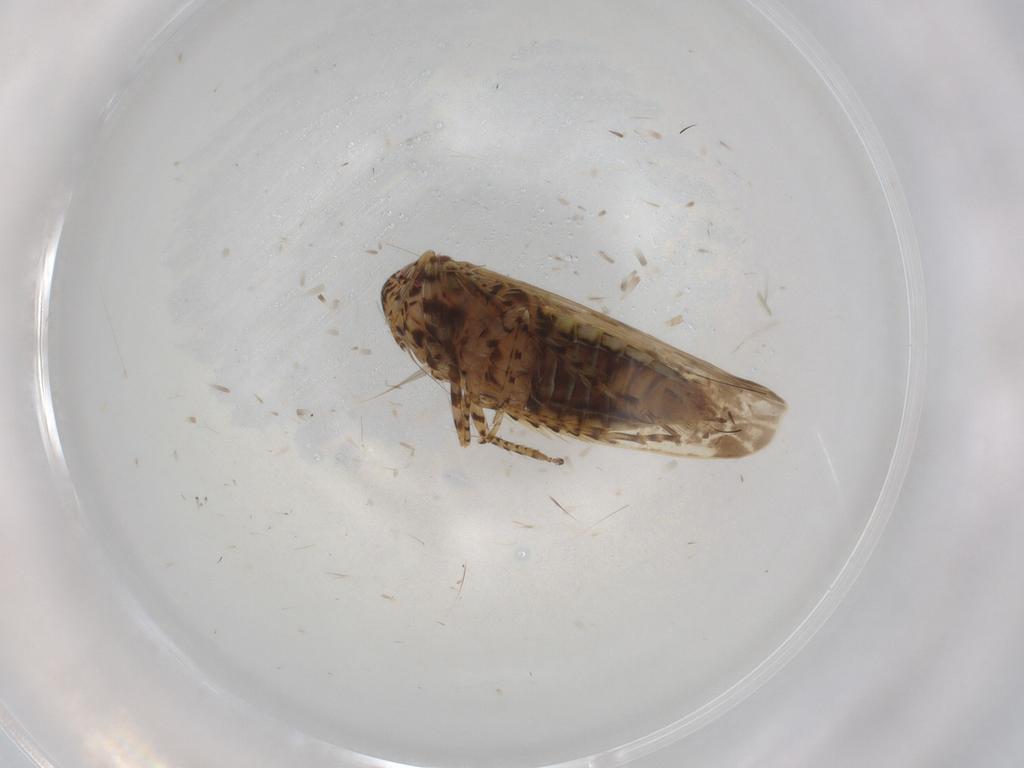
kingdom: Animalia
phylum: Arthropoda
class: Insecta
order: Hemiptera
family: Cicadellidae
